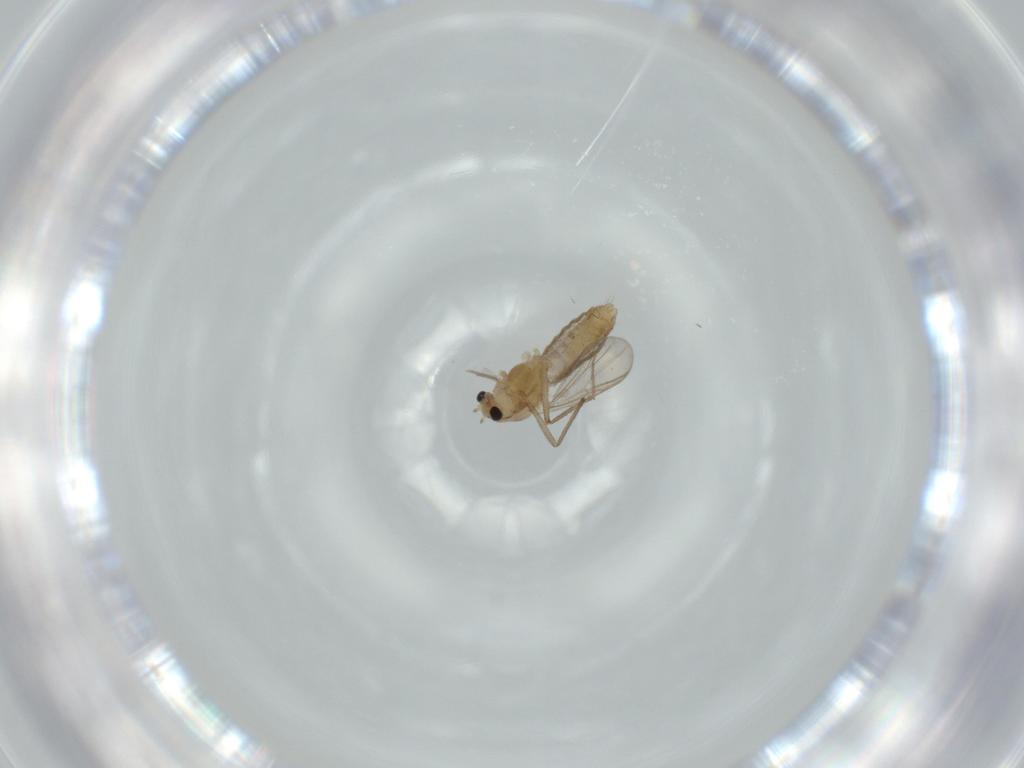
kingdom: Animalia
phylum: Arthropoda
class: Insecta
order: Diptera
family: Chironomidae
